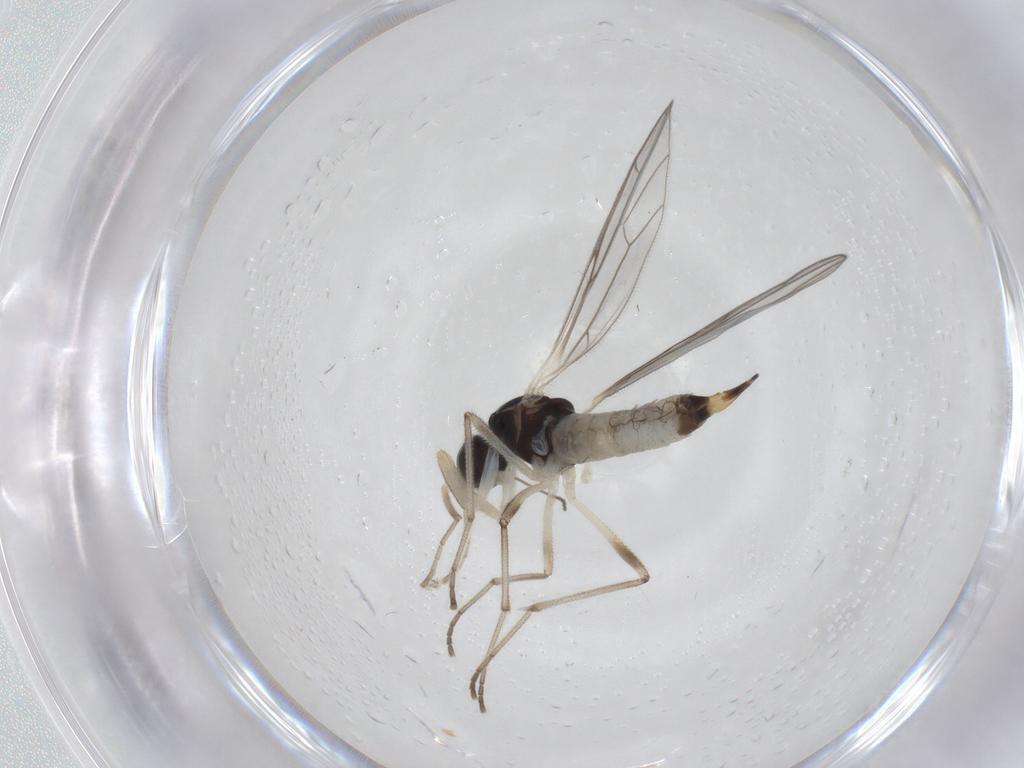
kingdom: Animalia
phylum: Arthropoda
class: Insecta
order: Diptera
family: Empididae
